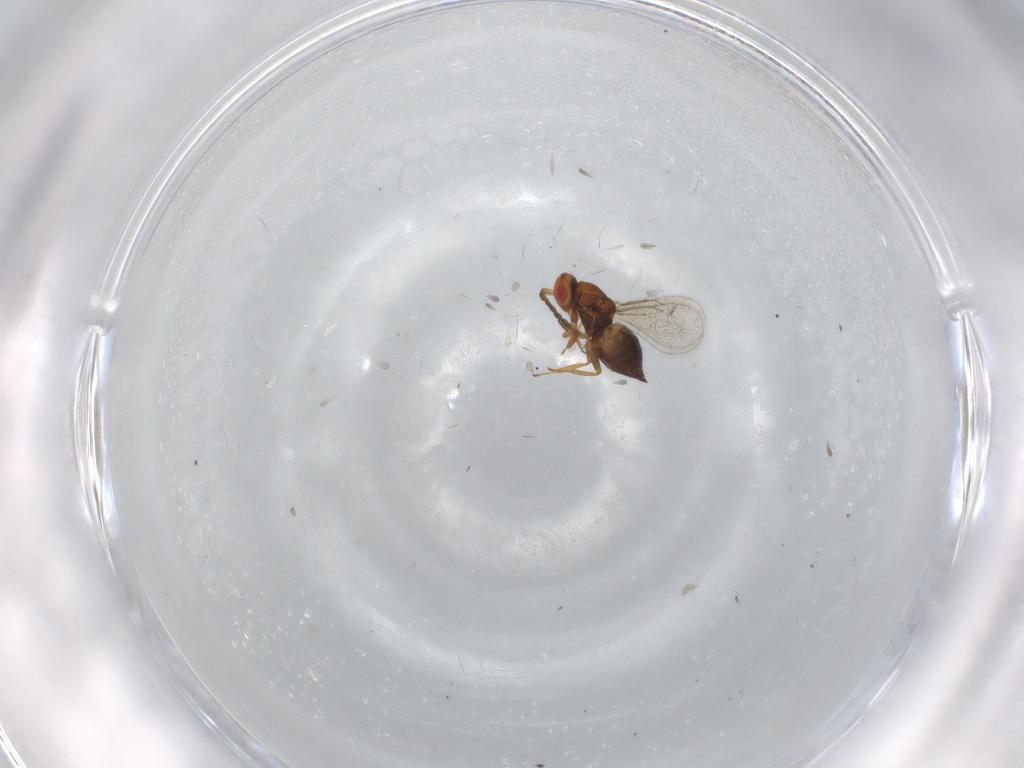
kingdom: Animalia
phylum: Arthropoda
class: Insecta
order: Hymenoptera
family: Eulophidae
